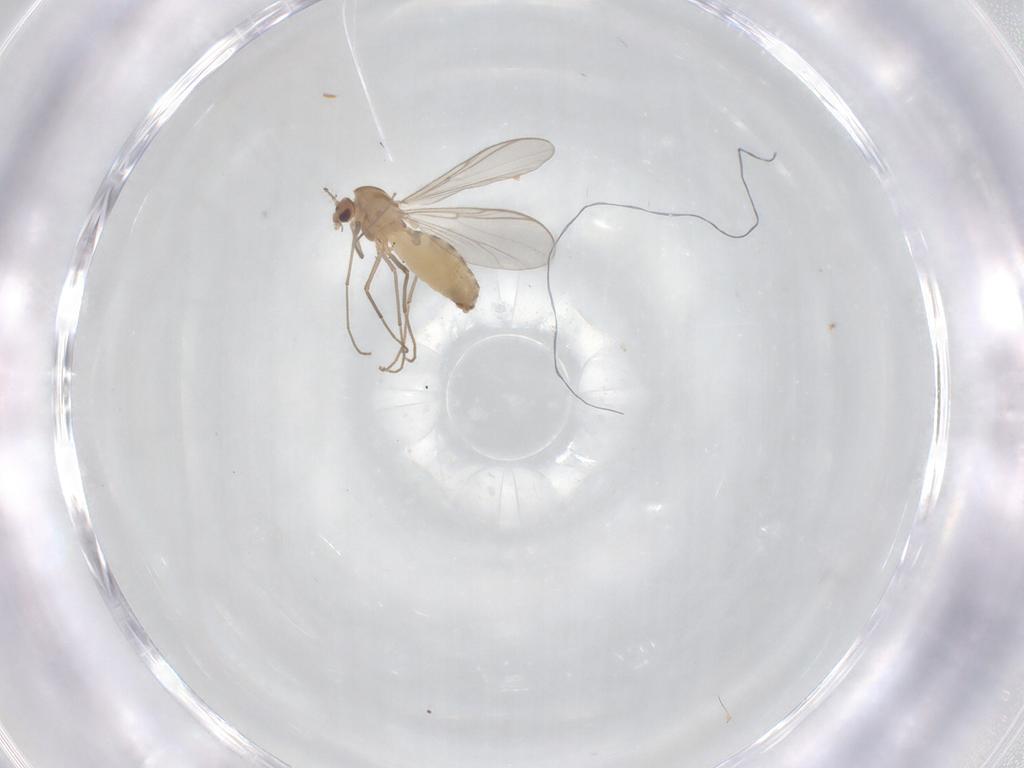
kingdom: Animalia
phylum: Arthropoda
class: Insecta
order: Diptera
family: Chironomidae
